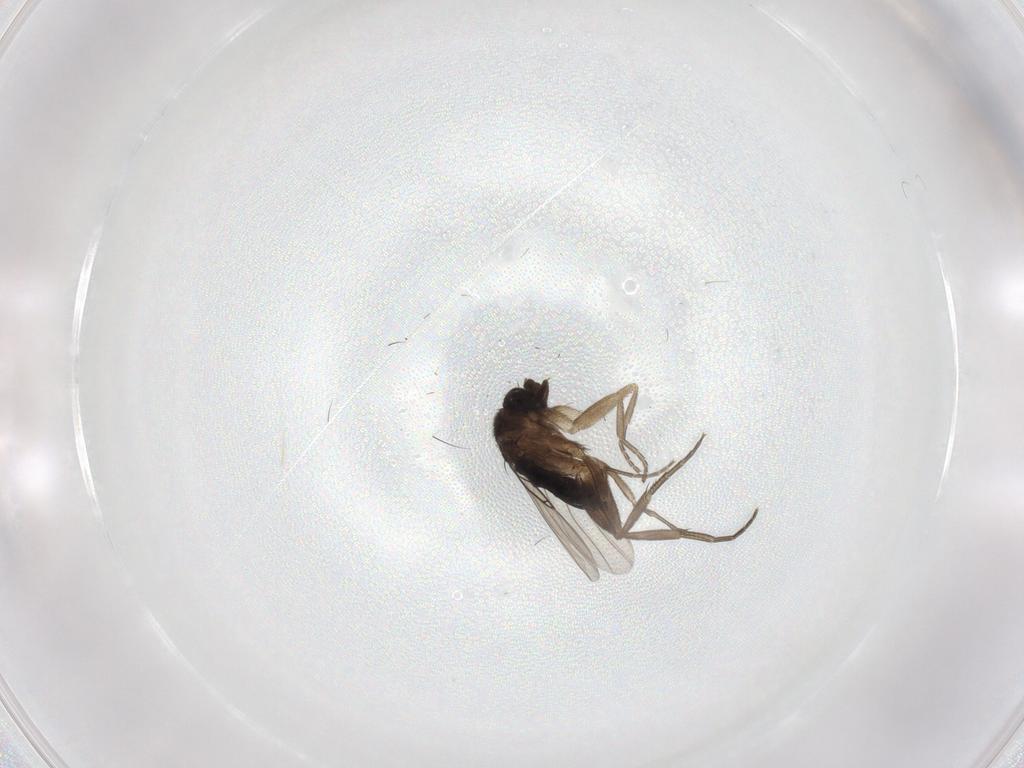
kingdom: Animalia
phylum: Arthropoda
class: Insecta
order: Diptera
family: Phoridae
